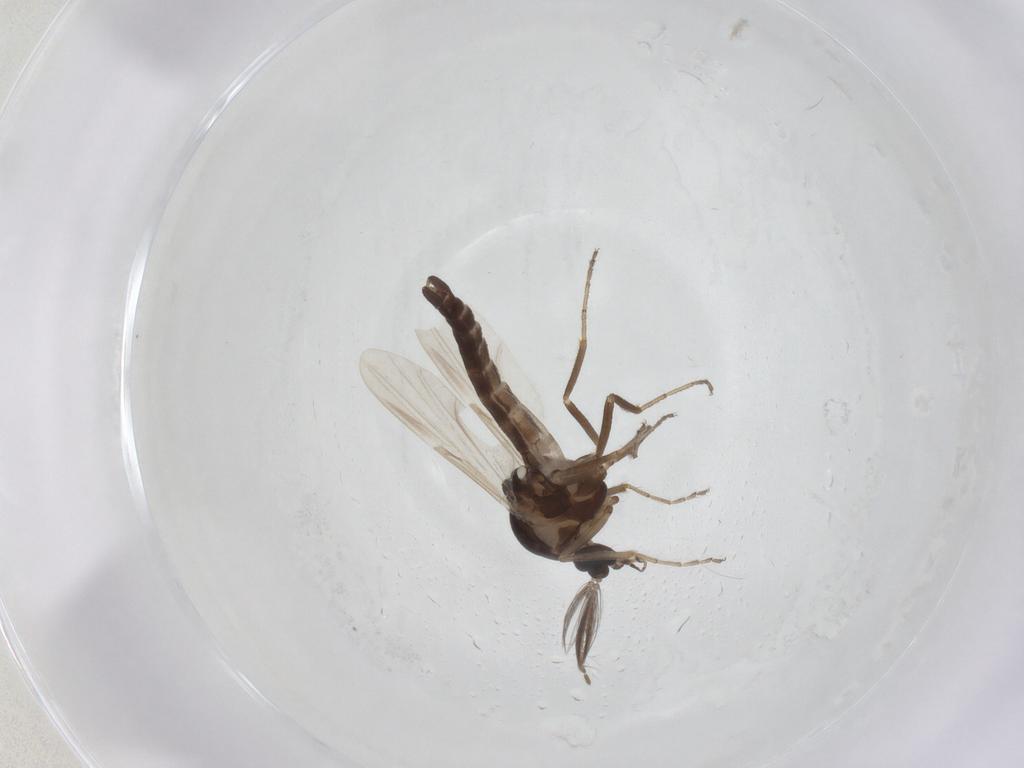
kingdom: Animalia
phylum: Arthropoda
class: Insecta
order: Diptera
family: Ceratopogonidae
